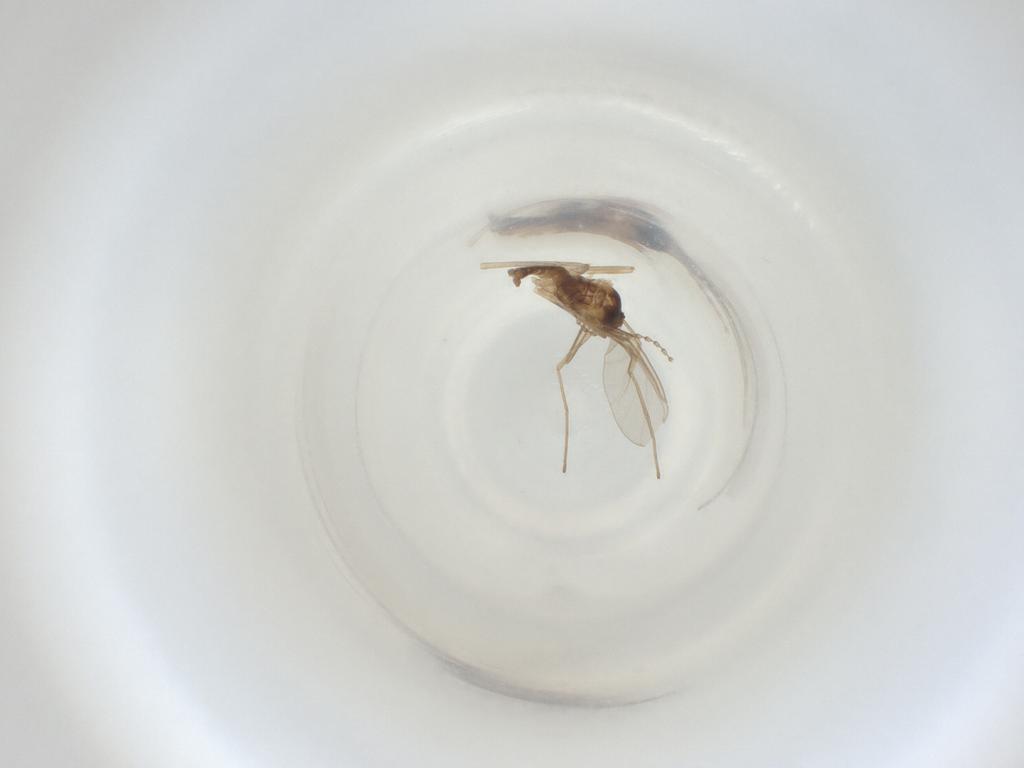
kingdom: Animalia
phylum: Arthropoda
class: Insecta
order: Diptera
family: Cecidomyiidae
